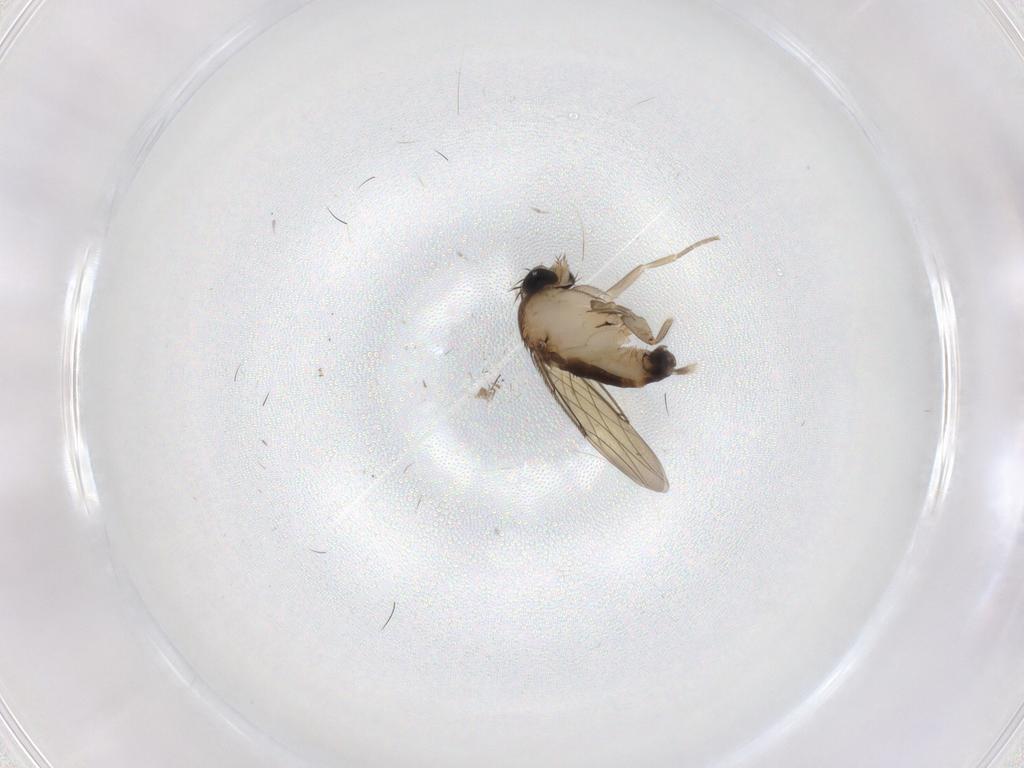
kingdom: Animalia
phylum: Arthropoda
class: Insecta
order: Diptera
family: Phoridae
